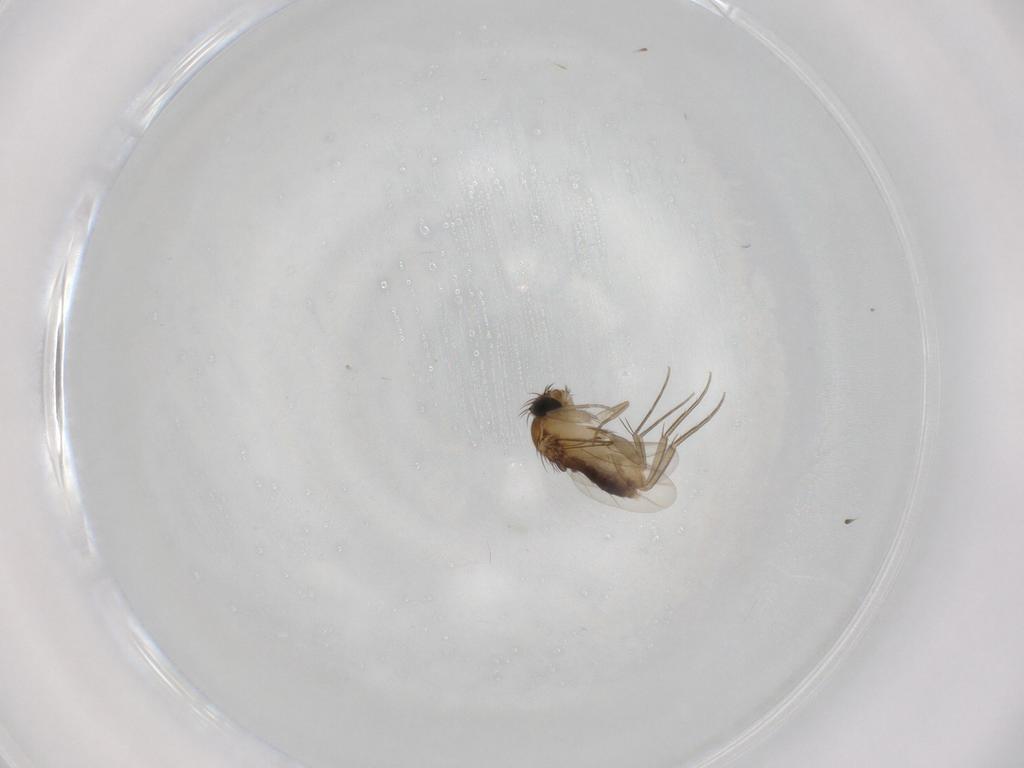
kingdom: Animalia
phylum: Arthropoda
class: Insecta
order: Diptera
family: Phoridae
